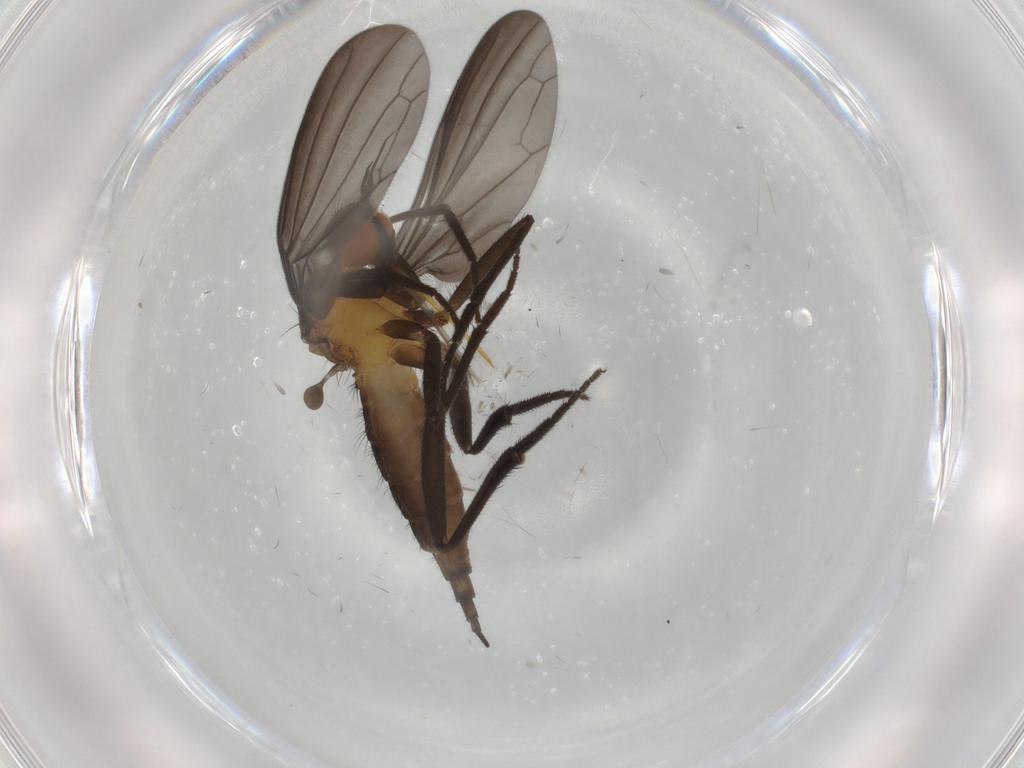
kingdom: Animalia
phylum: Arthropoda
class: Insecta
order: Diptera
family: Empididae
